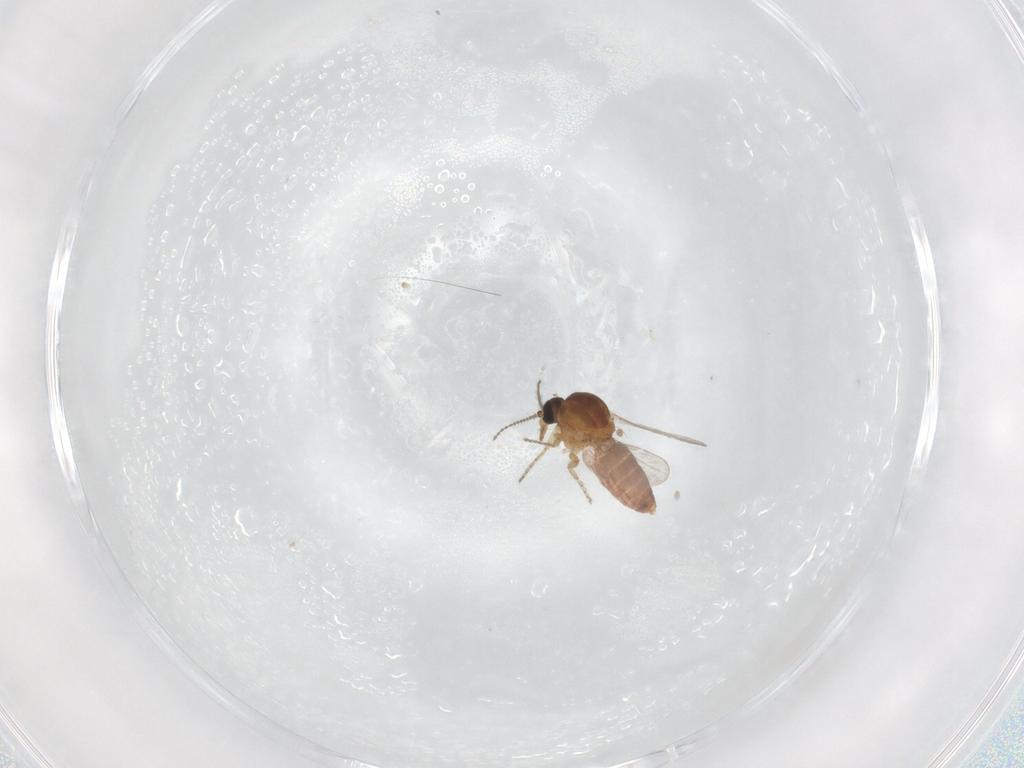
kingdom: Animalia
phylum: Arthropoda
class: Insecta
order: Diptera
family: Ceratopogonidae
